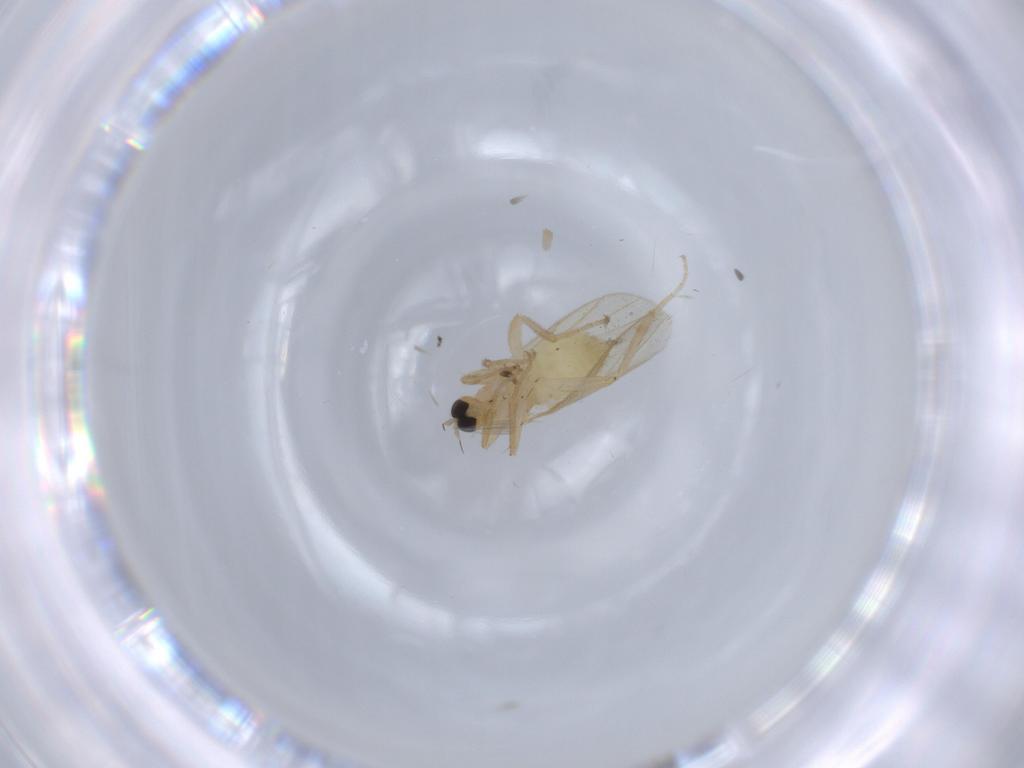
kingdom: Animalia
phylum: Arthropoda
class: Insecta
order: Diptera
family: Hybotidae
